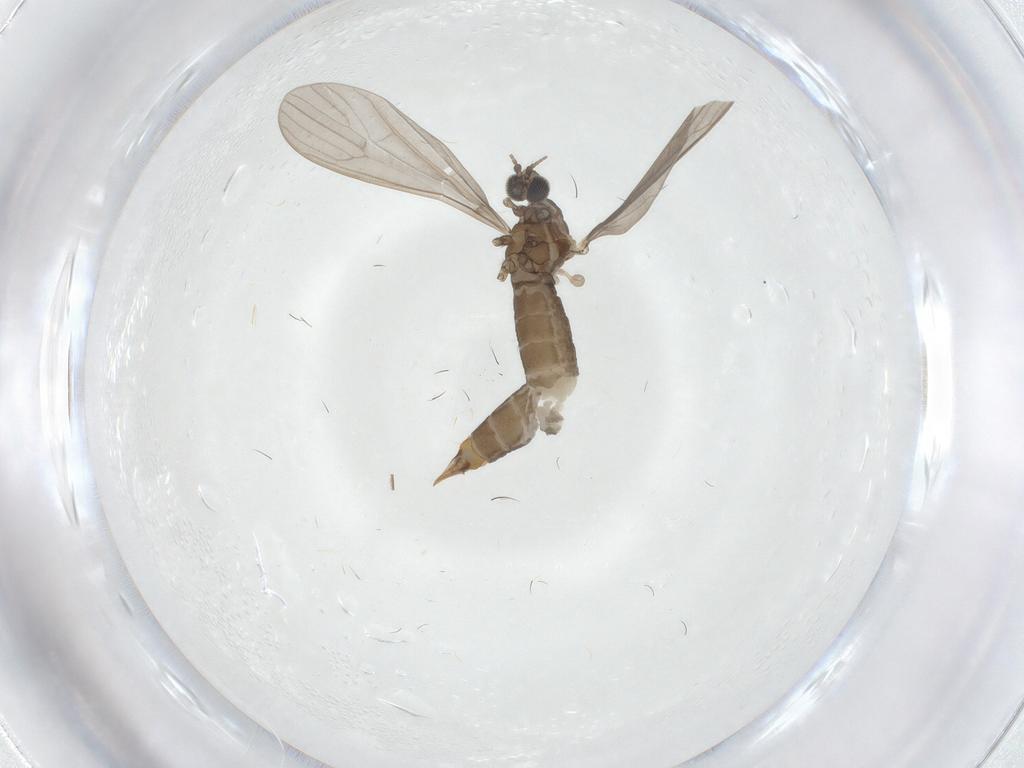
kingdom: Animalia
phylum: Arthropoda
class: Insecta
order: Diptera
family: Limoniidae
